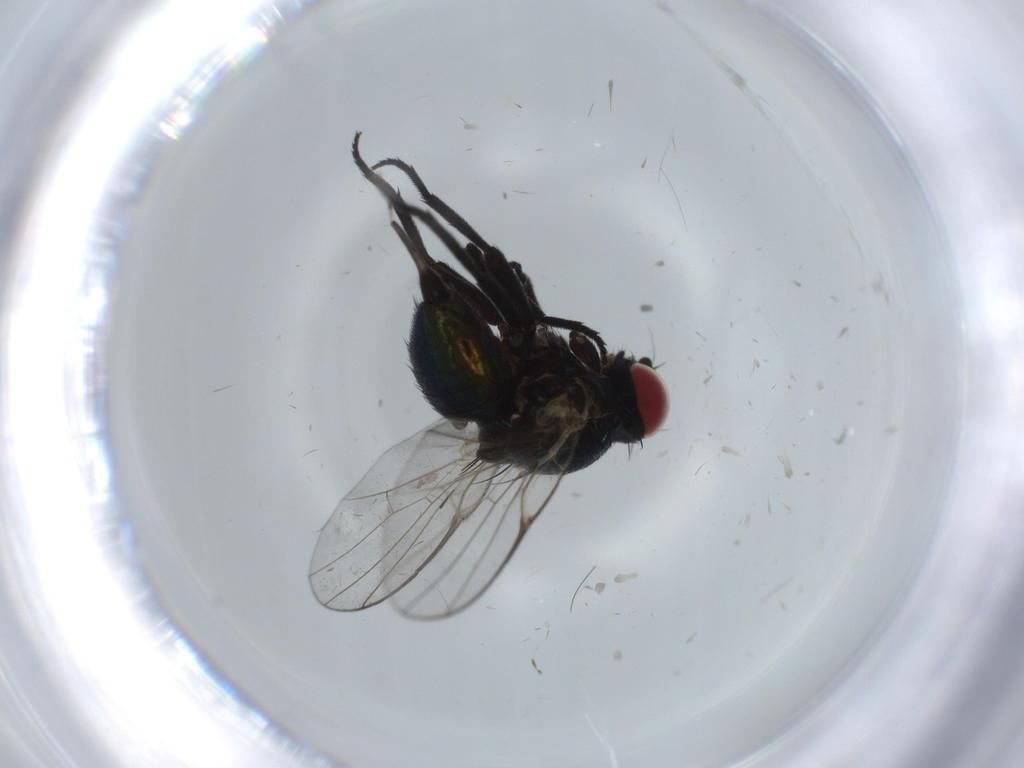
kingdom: Animalia
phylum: Arthropoda
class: Insecta
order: Diptera
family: Agromyzidae
